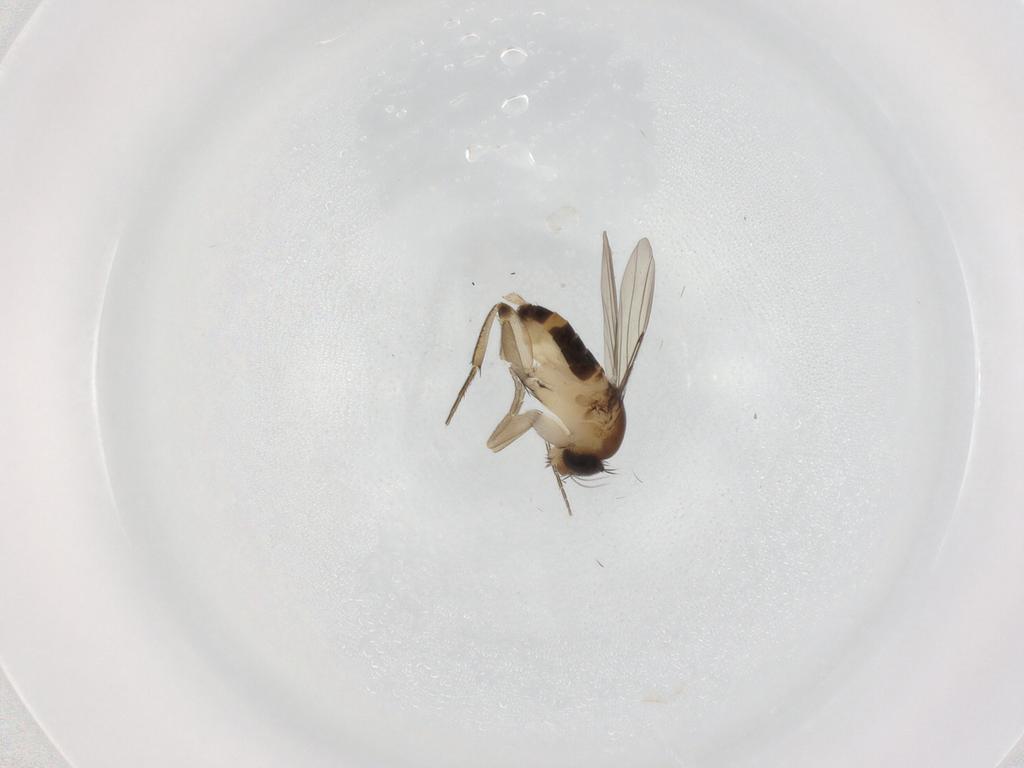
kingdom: Animalia
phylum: Arthropoda
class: Insecta
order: Diptera
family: Phoridae
